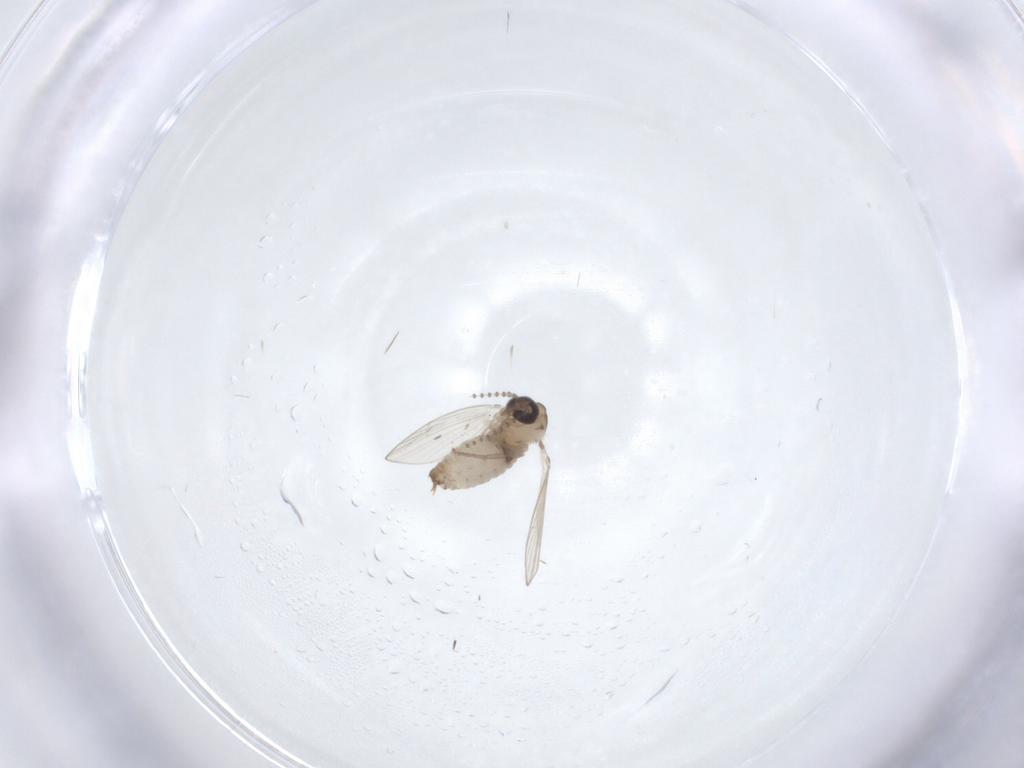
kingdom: Animalia
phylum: Arthropoda
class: Insecta
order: Diptera
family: Psychodidae
